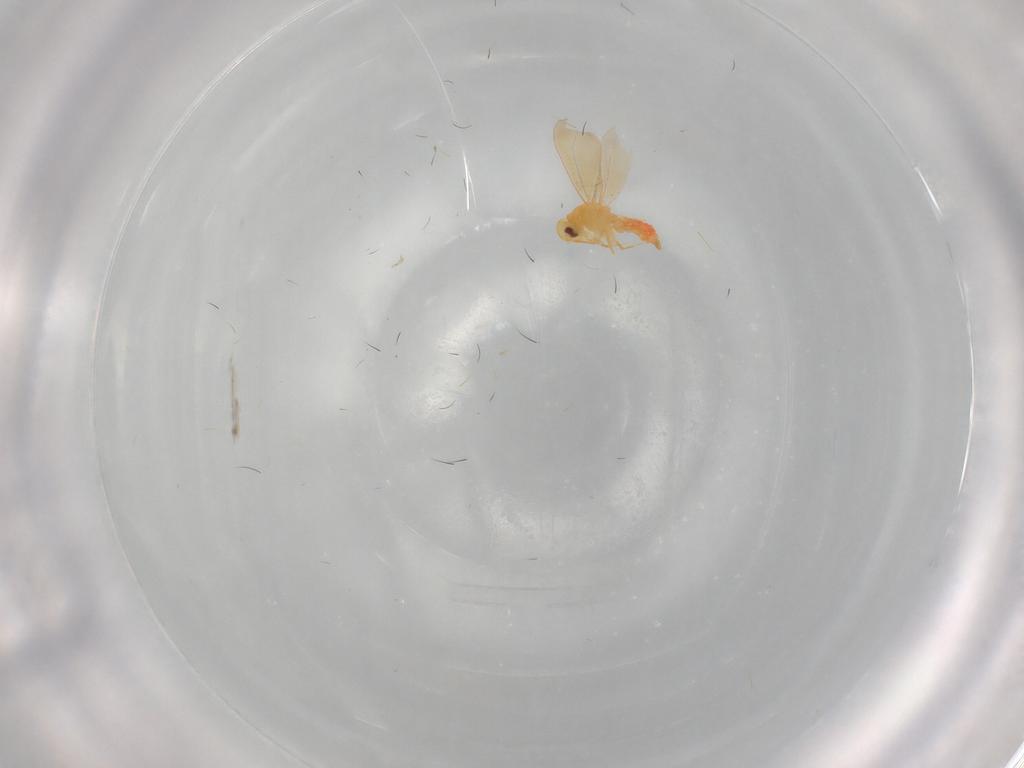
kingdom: Animalia
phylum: Arthropoda
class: Insecta
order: Hemiptera
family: Aleyrodidae
